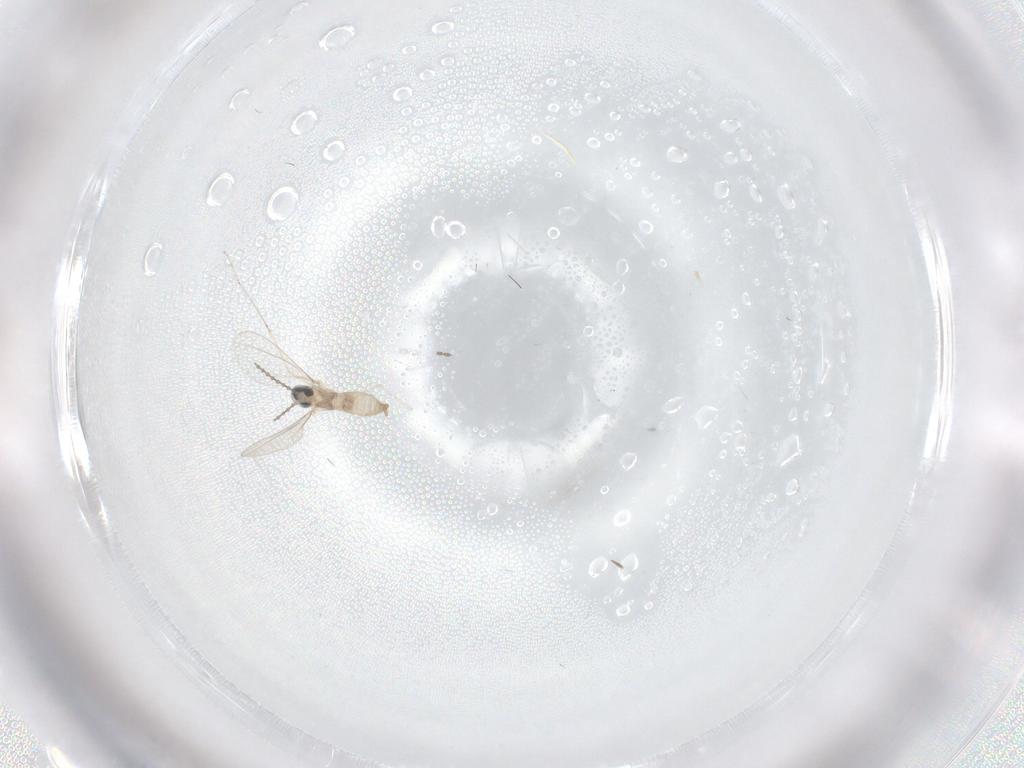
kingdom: Animalia
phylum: Arthropoda
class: Insecta
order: Diptera
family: Cecidomyiidae
